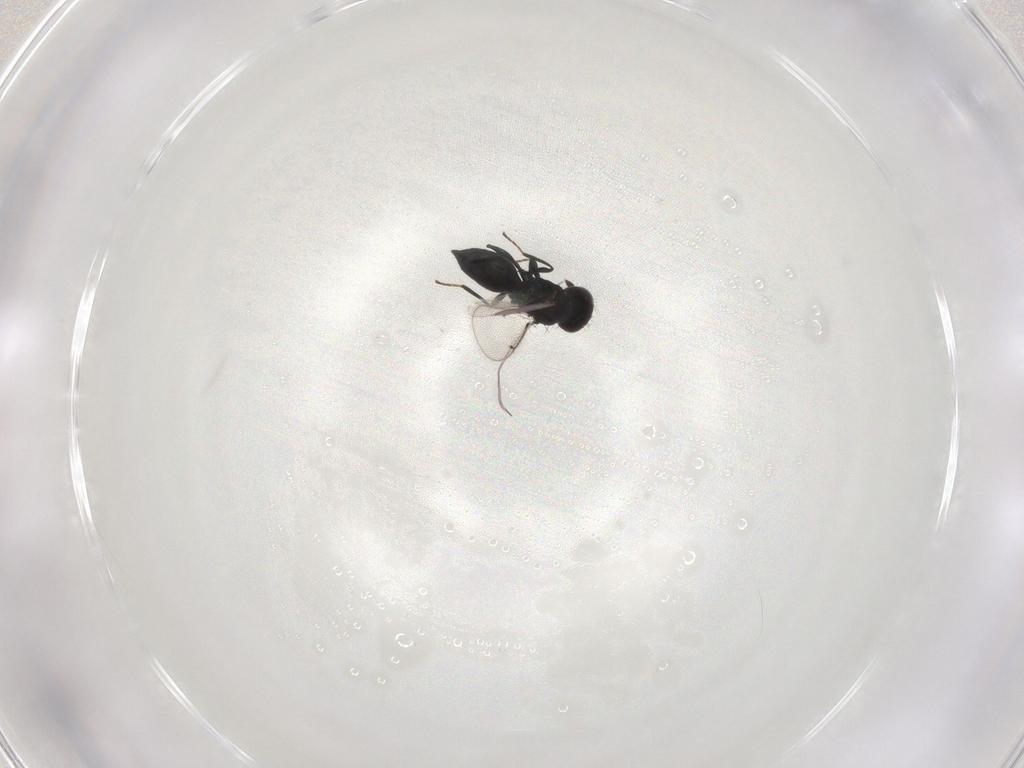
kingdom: Animalia
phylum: Arthropoda
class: Insecta
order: Hymenoptera
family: Eulophidae
